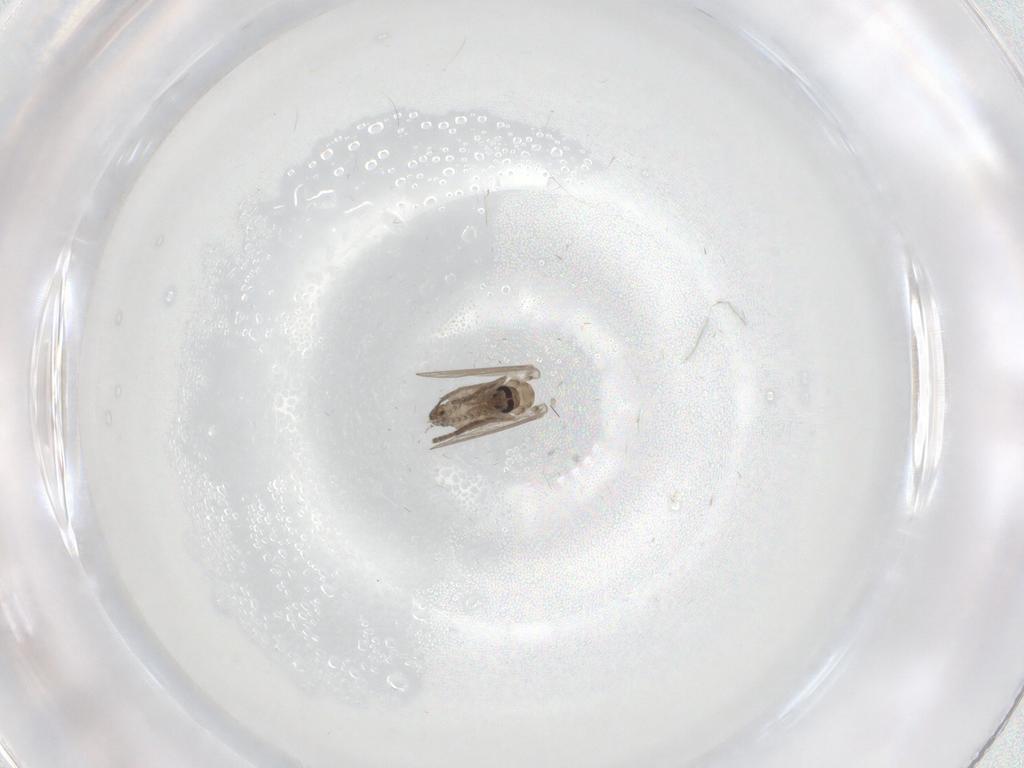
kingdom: Animalia
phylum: Arthropoda
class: Insecta
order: Diptera
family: Psychodidae
